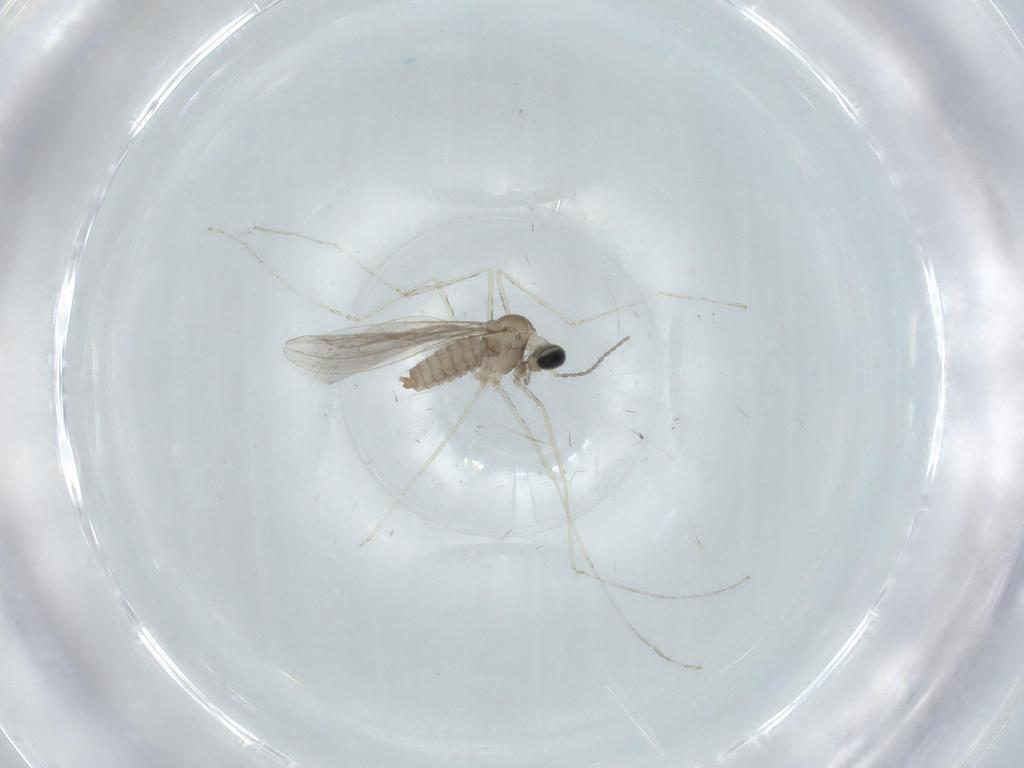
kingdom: Animalia
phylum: Arthropoda
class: Insecta
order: Diptera
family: Cecidomyiidae
